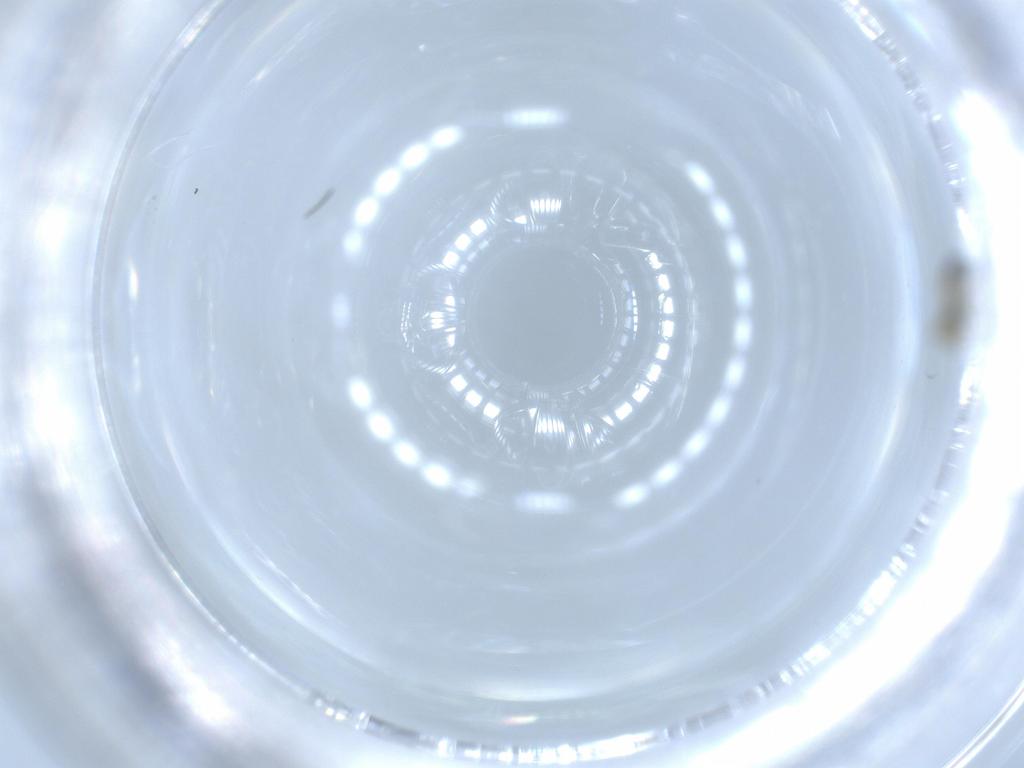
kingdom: Animalia
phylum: Arthropoda
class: Insecta
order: Diptera
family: Cecidomyiidae
